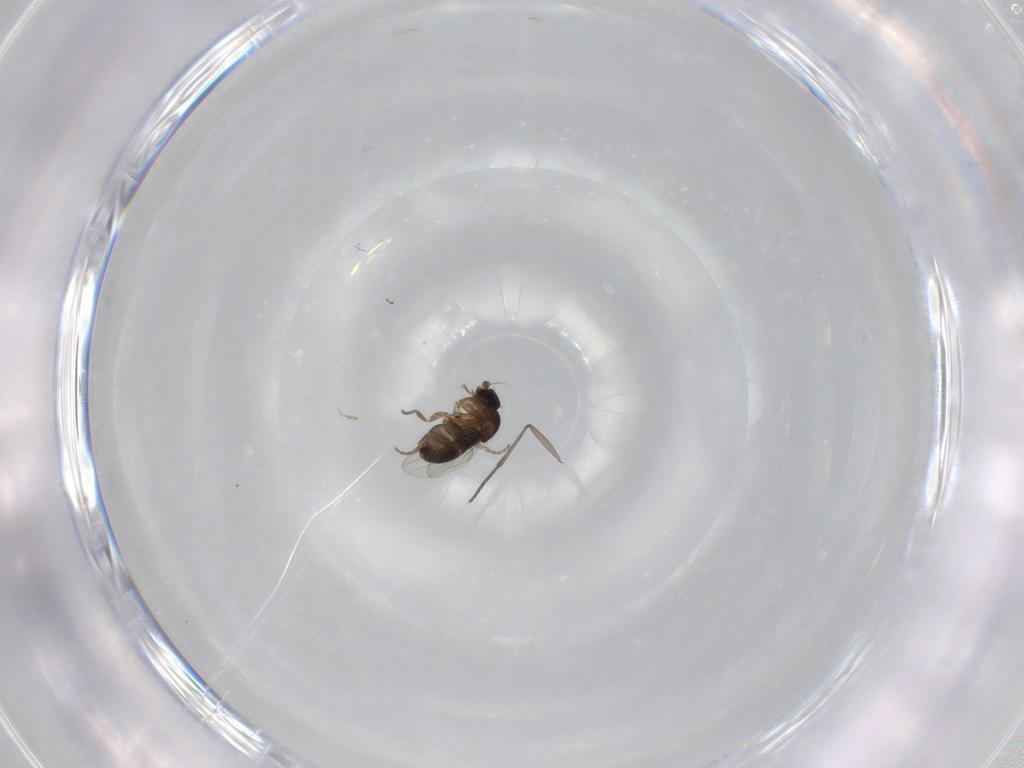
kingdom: Animalia
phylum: Arthropoda
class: Insecta
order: Diptera
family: Phoridae
